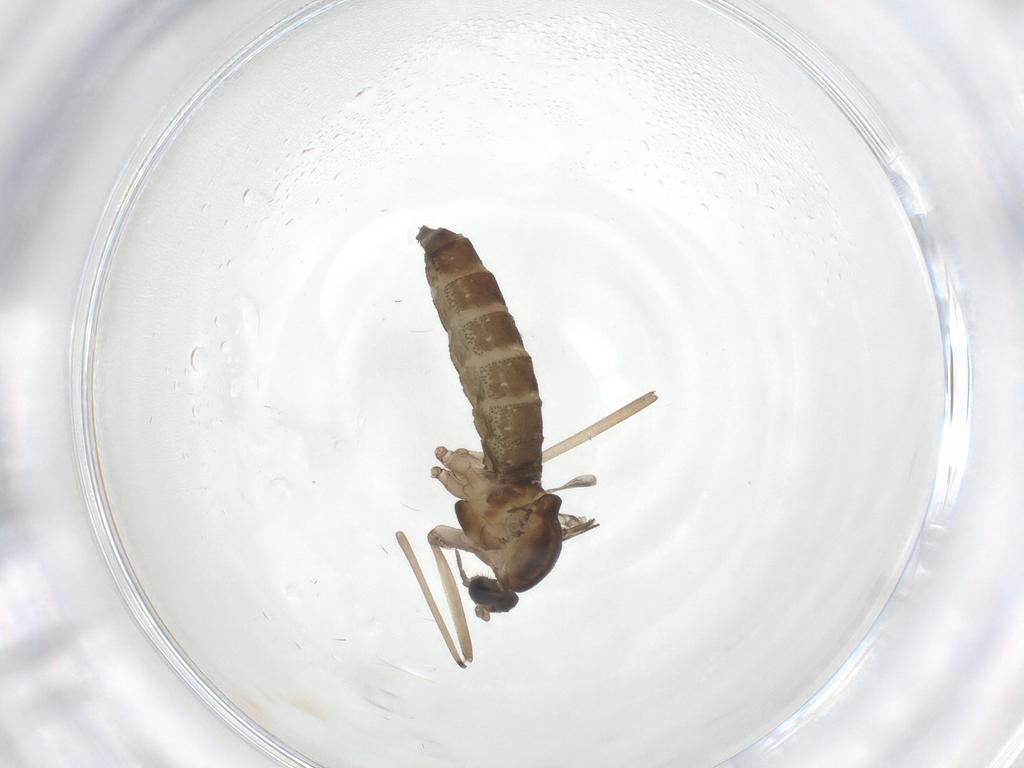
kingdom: Animalia
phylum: Arthropoda
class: Insecta
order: Diptera
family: Cecidomyiidae
